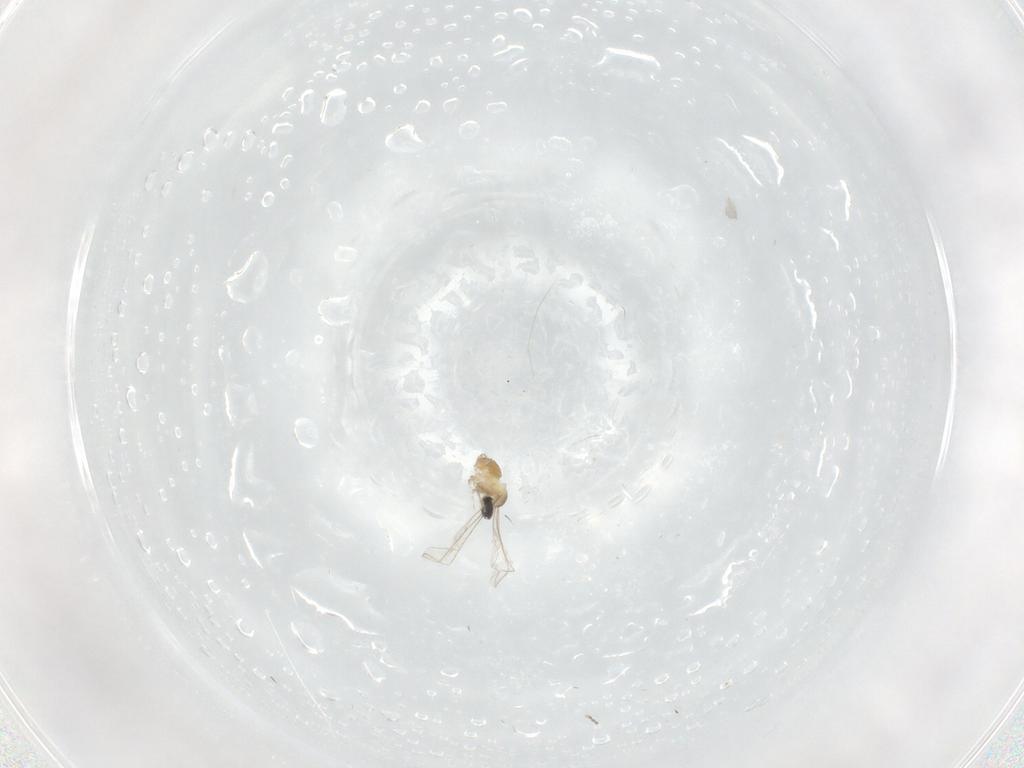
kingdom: Animalia
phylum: Arthropoda
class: Insecta
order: Diptera
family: Cecidomyiidae
